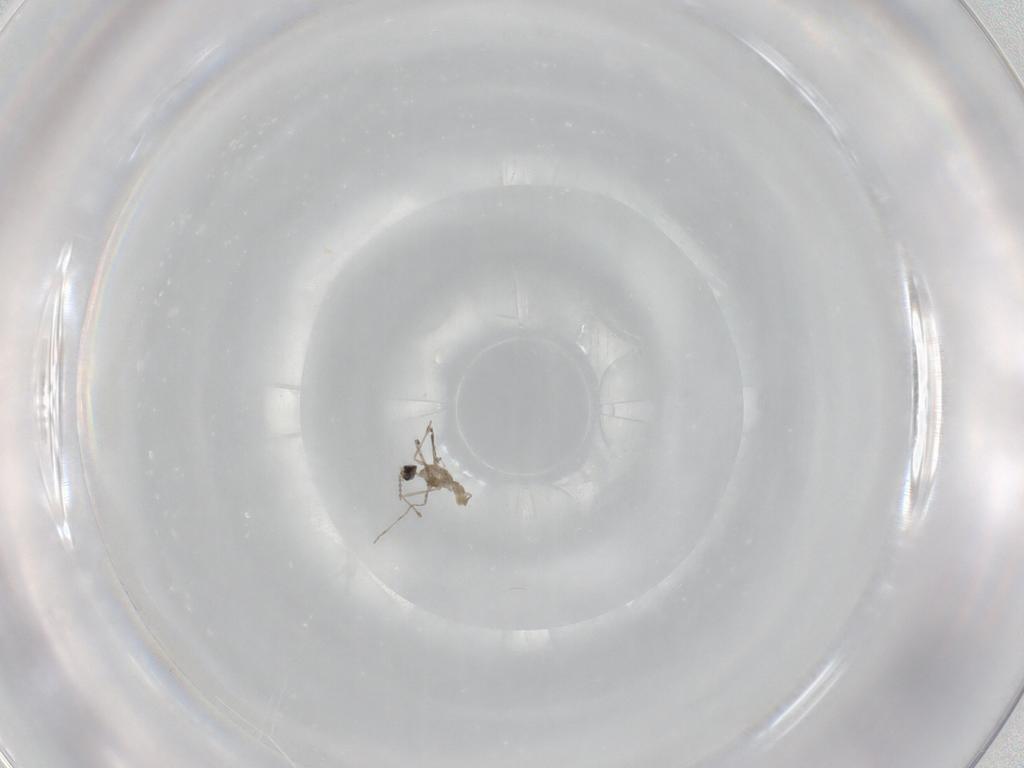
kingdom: Animalia
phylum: Arthropoda
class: Insecta
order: Diptera
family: Cecidomyiidae
